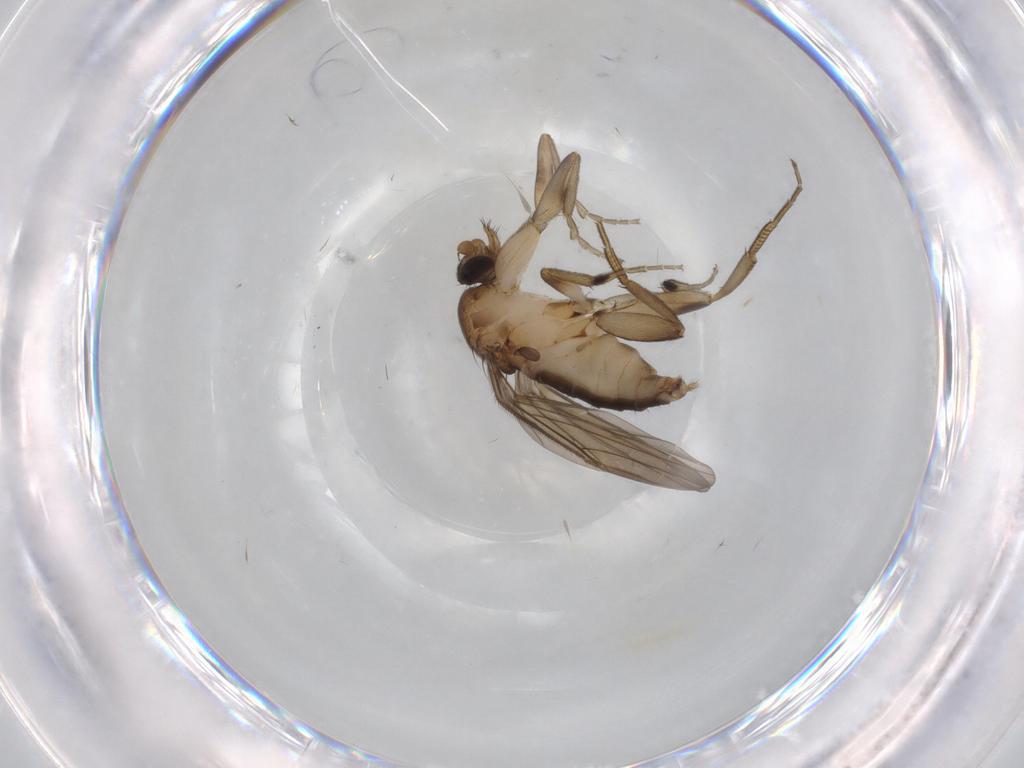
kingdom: Animalia
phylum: Arthropoda
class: Insecta
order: Diptera
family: Phoridae
